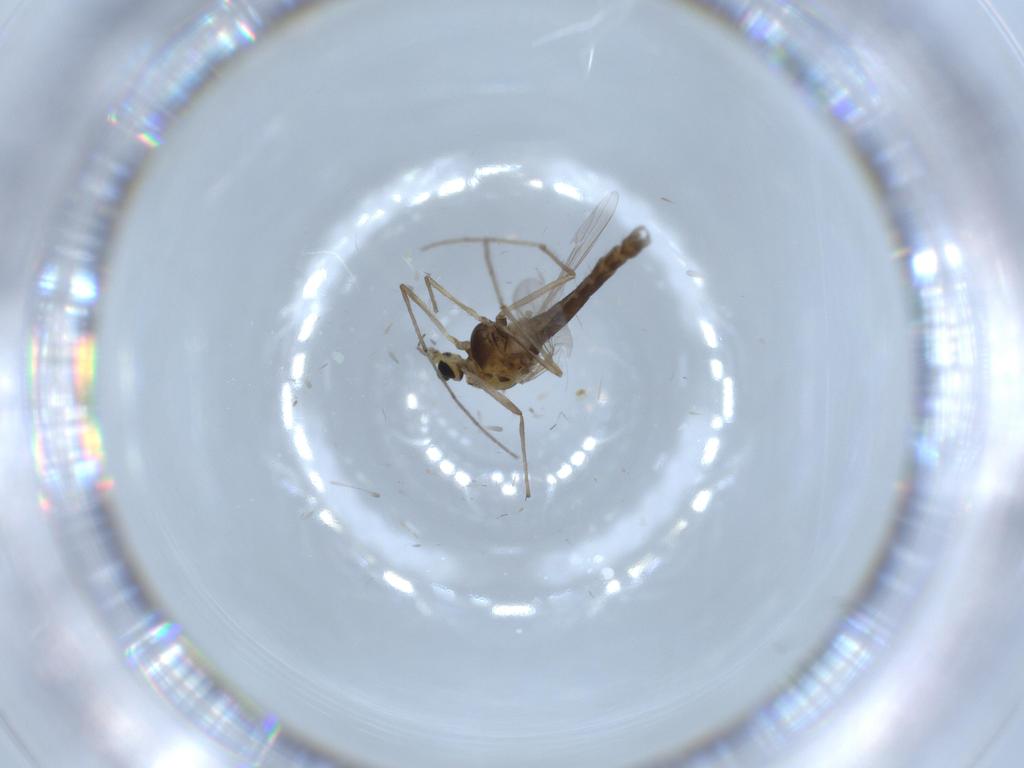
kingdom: Animalia
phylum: Arthropoda
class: Insecta
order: Diptera
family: Chironomidae
